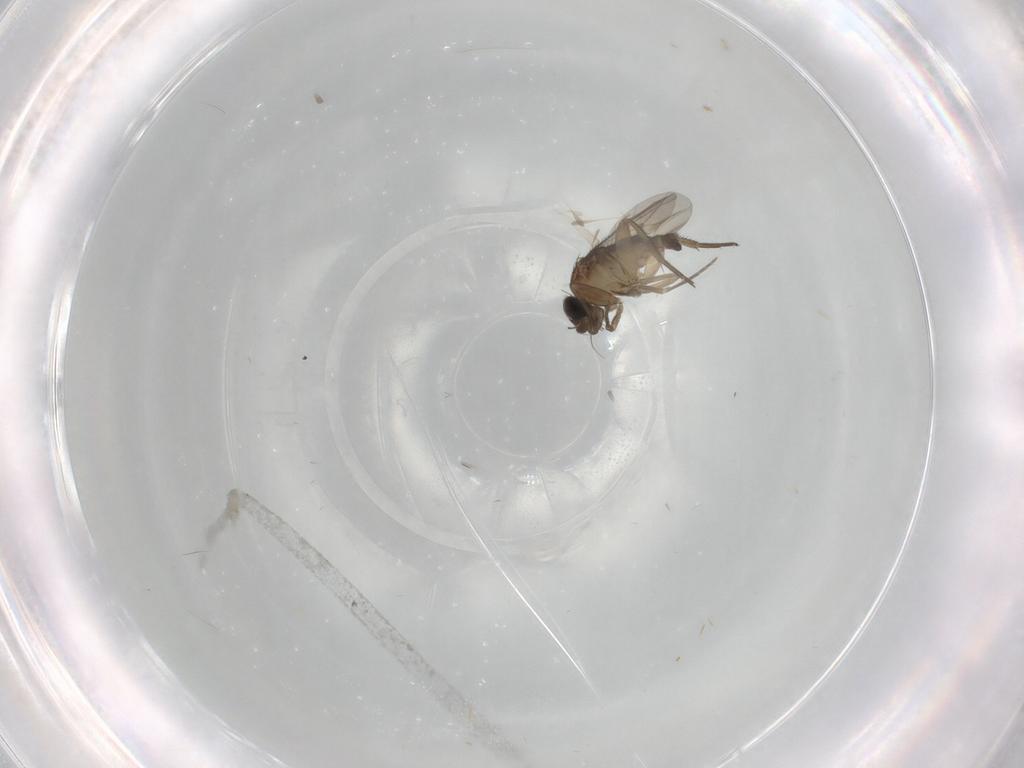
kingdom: Animalia
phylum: Arthropoda
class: Insecta
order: Diptera
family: Phoridae
